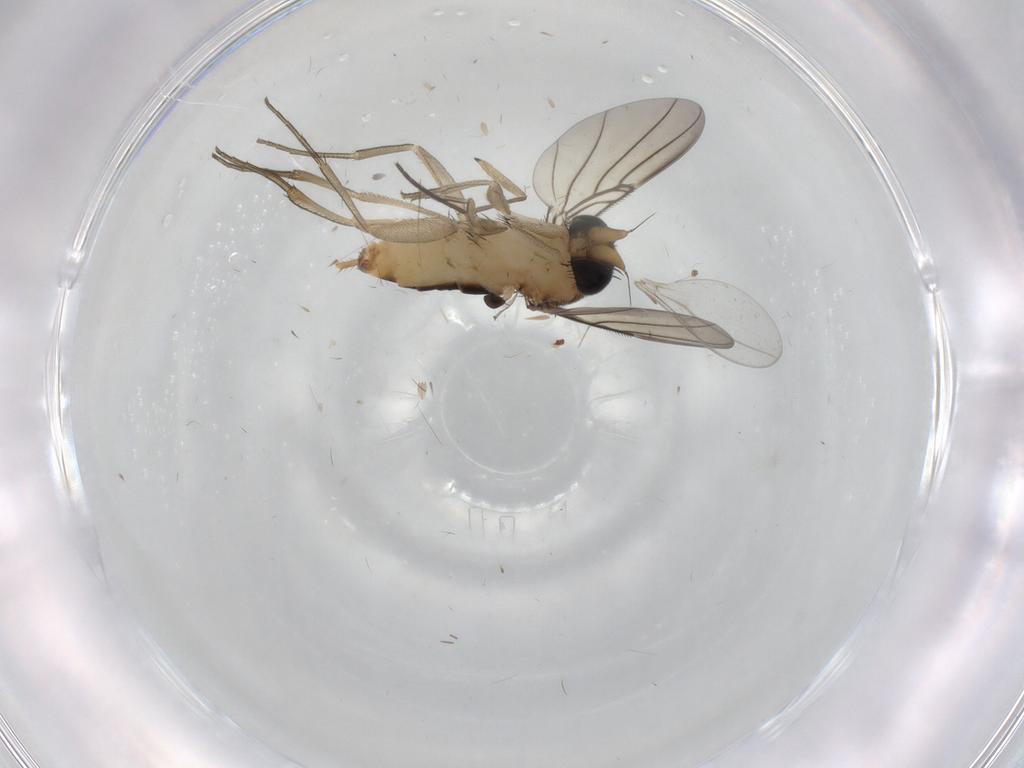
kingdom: Animalia
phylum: Arthropoda
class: Insecta
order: Diptera
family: Phoridae
